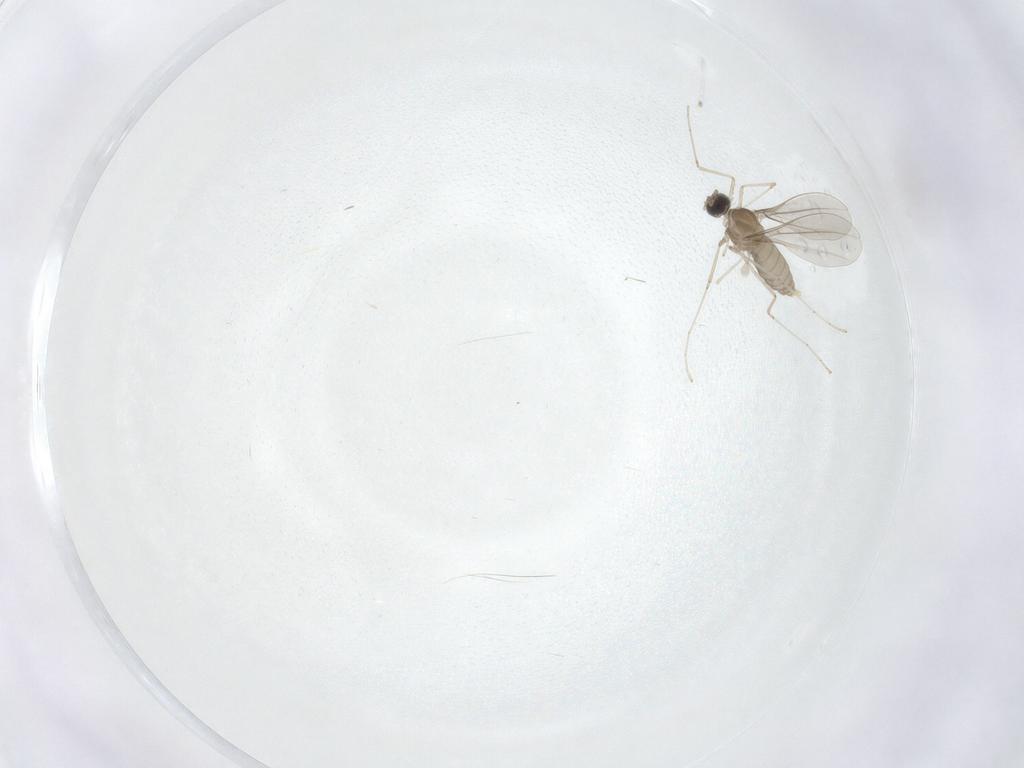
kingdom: Animalia
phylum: Arthropoda
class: Insecta
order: Diptera
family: Cecidomyiidae
